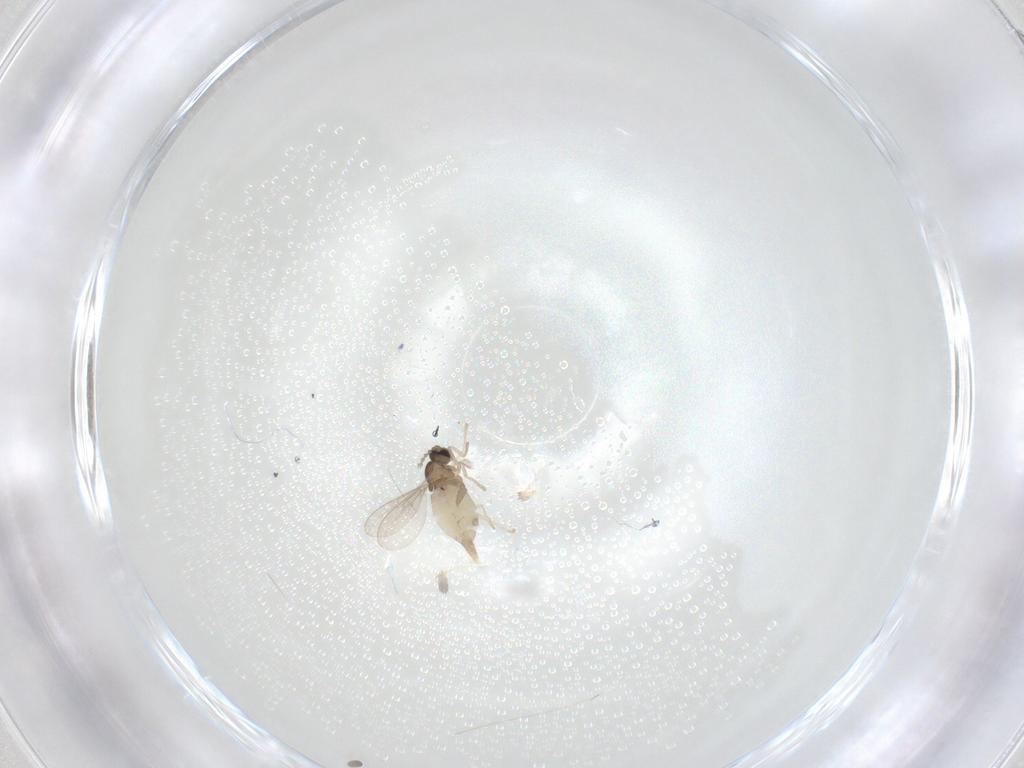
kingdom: Animalia
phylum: Arthropoda
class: Insecta
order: Diptera
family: Cecidomyiidae
